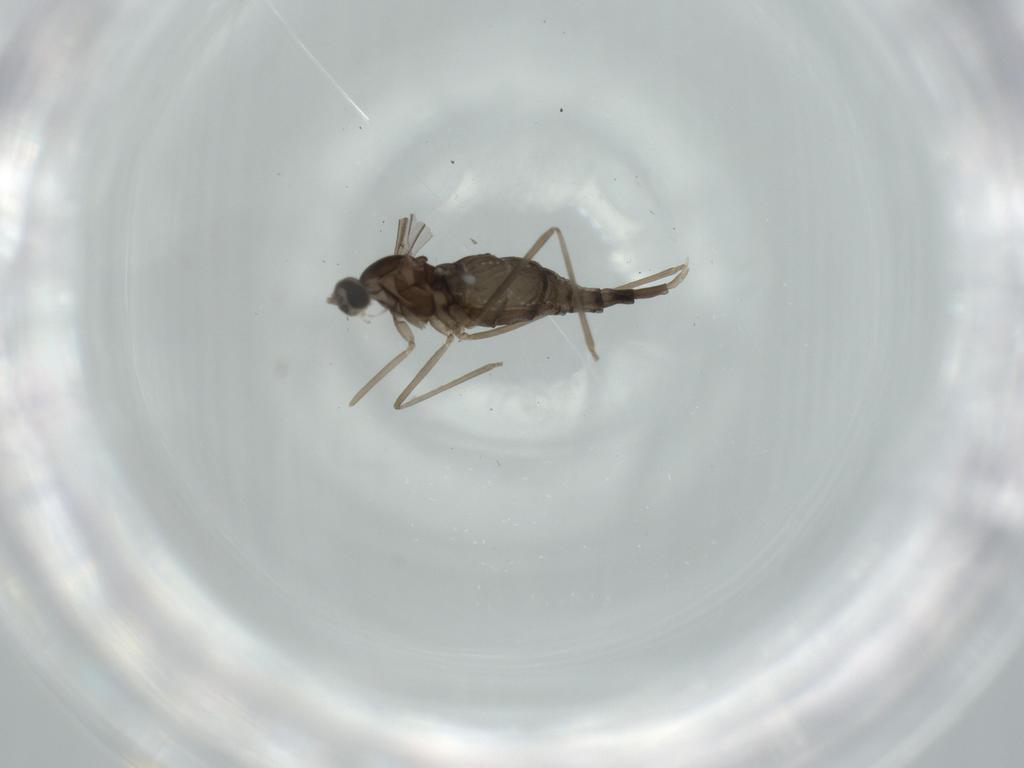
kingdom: Animalia
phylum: Arthropoda
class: Insecta
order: Diptera
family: Cecidomyiidae
